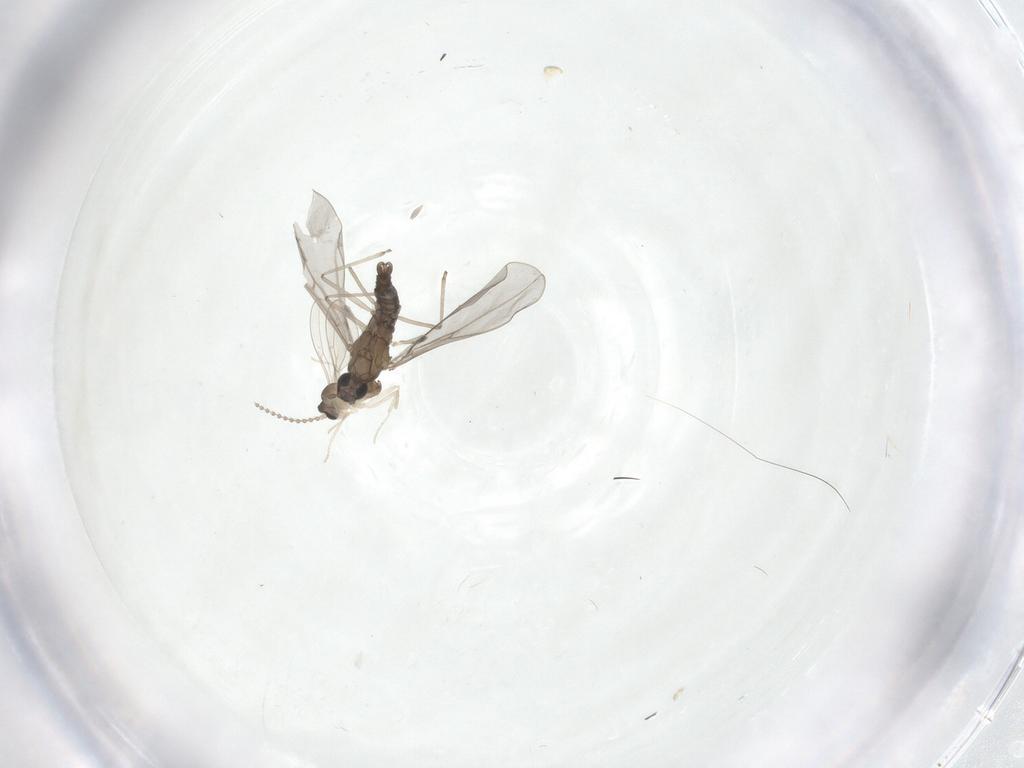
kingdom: Animalia
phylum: Arthropoda
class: Insecta
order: Diptera
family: Cecidomyiidae
